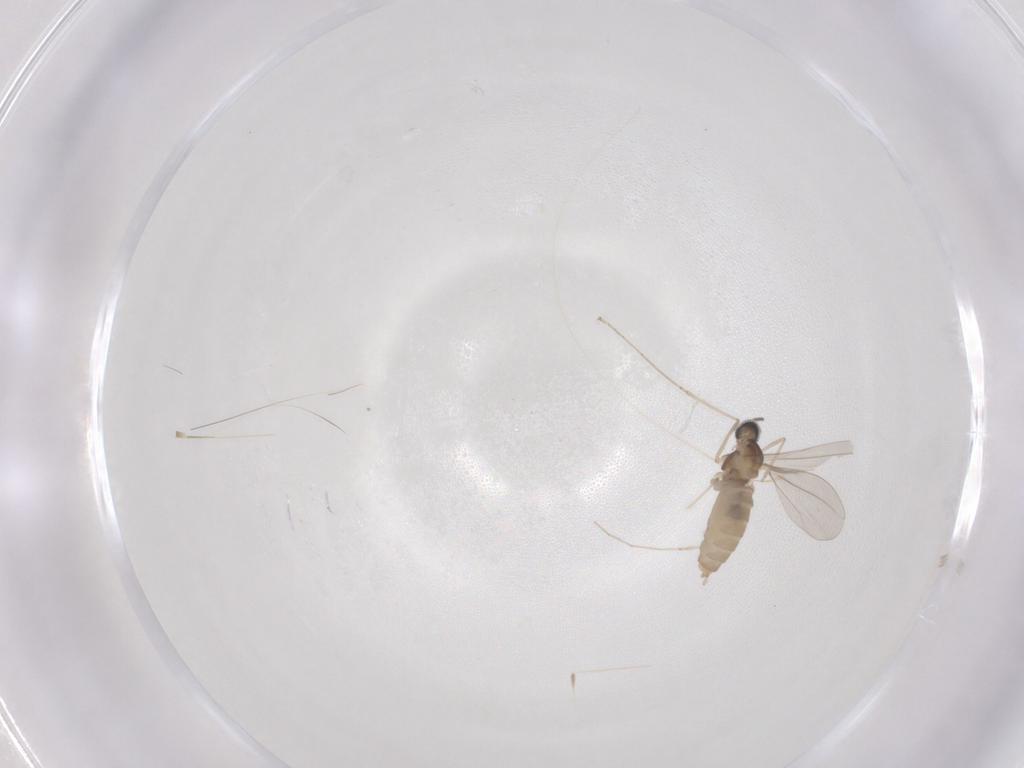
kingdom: Animalia
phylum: Arthropoda
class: Insecta
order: Diptera
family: Cecidomyiidae
